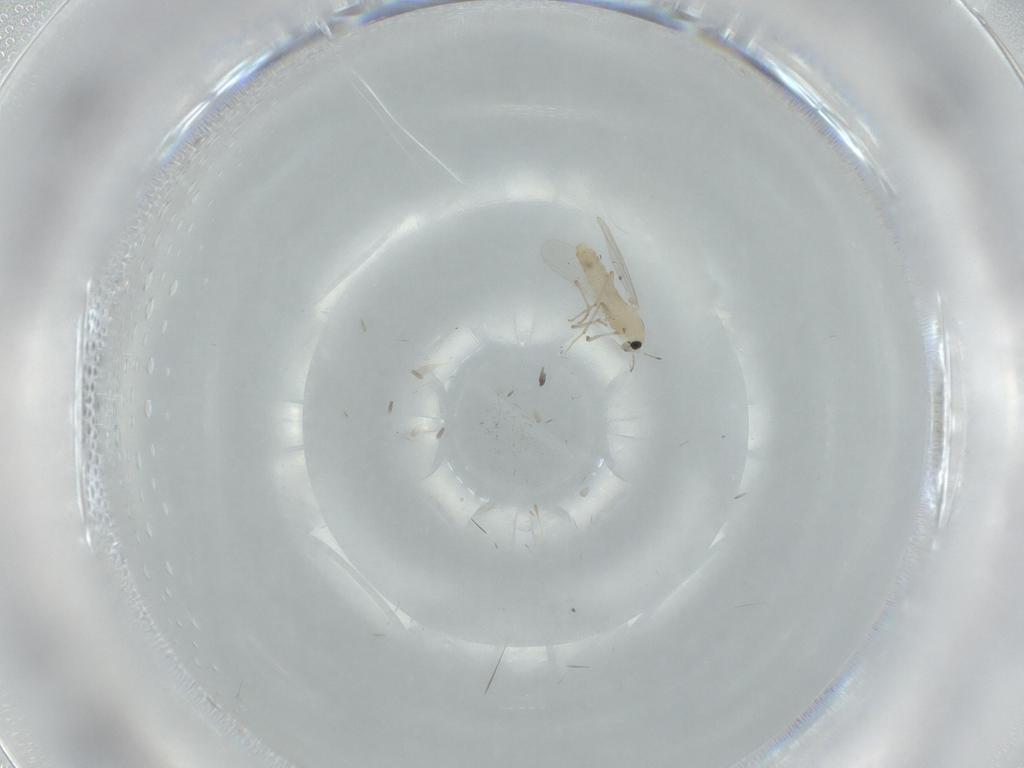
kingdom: Animalia
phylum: Arthropoda
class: Insecta
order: Diptera
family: Chironomidae
